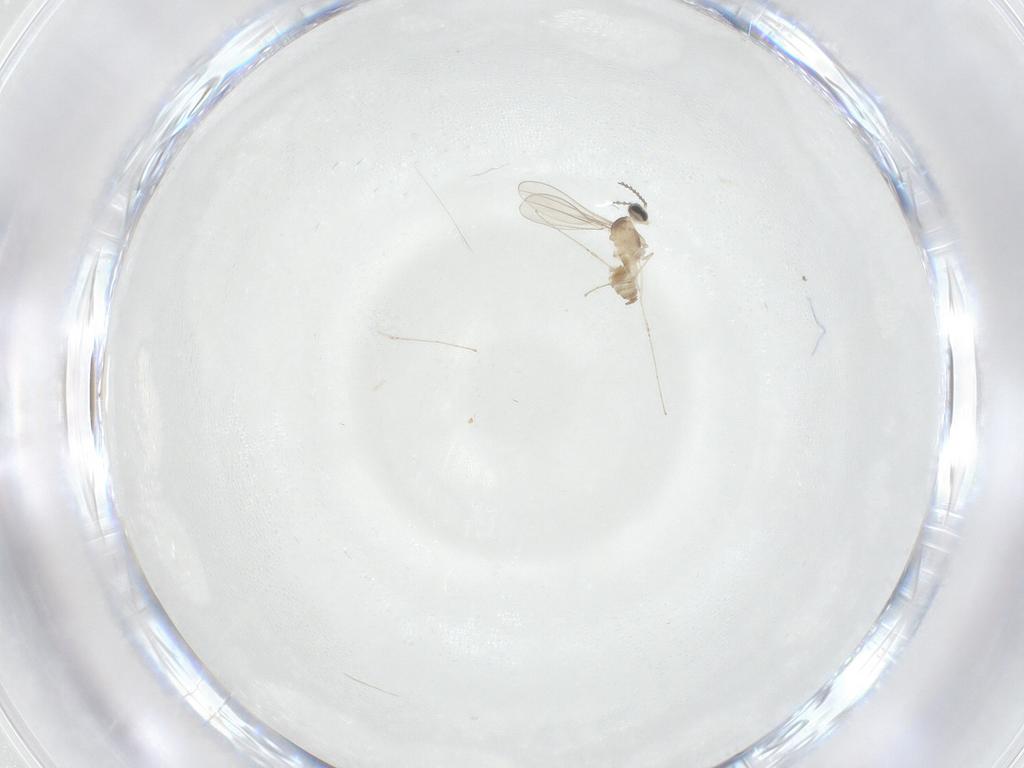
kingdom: Animalia
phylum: Arthropoda
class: Insecta
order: Diptera
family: Cecidomyiidae
